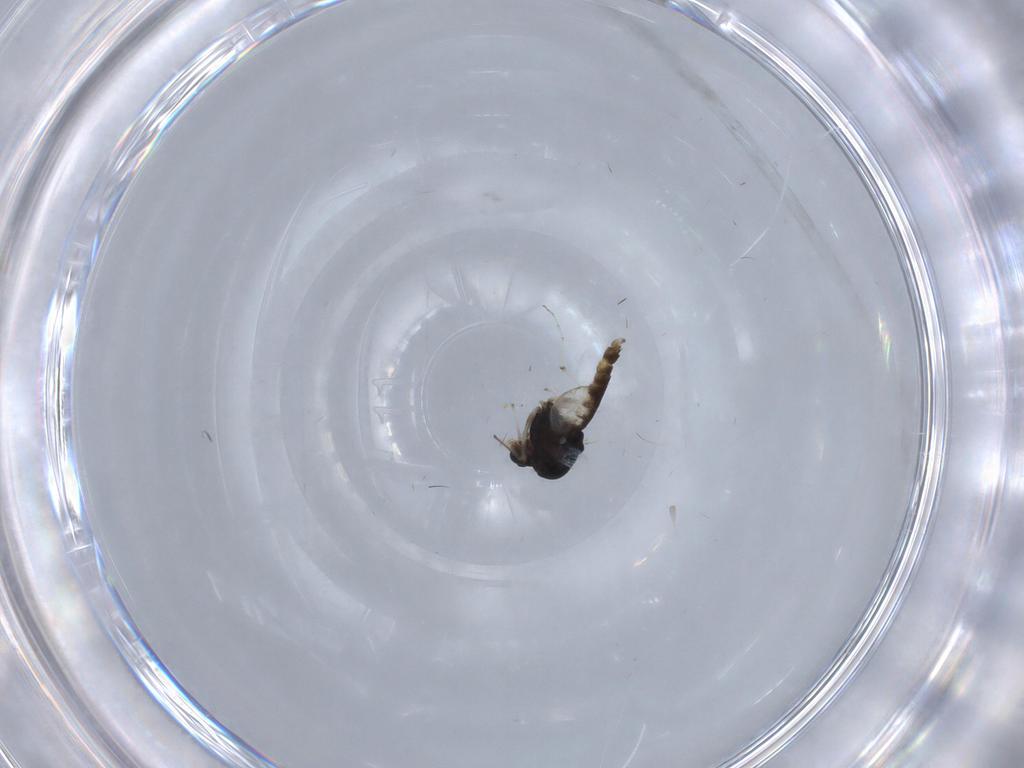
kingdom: Animalia
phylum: Arthropoda
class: Insecta
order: Diptera
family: Chironomidae
